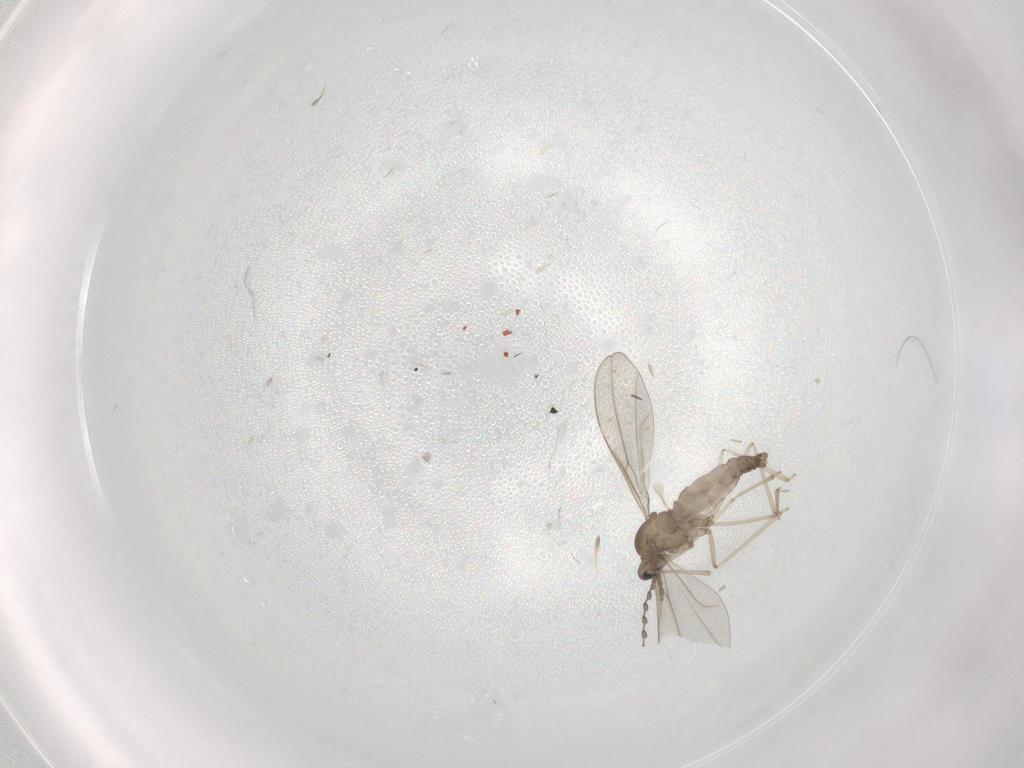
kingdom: Animalia
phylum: Arthropoda
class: Insecta
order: Diptera
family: Cecidomyiidae
